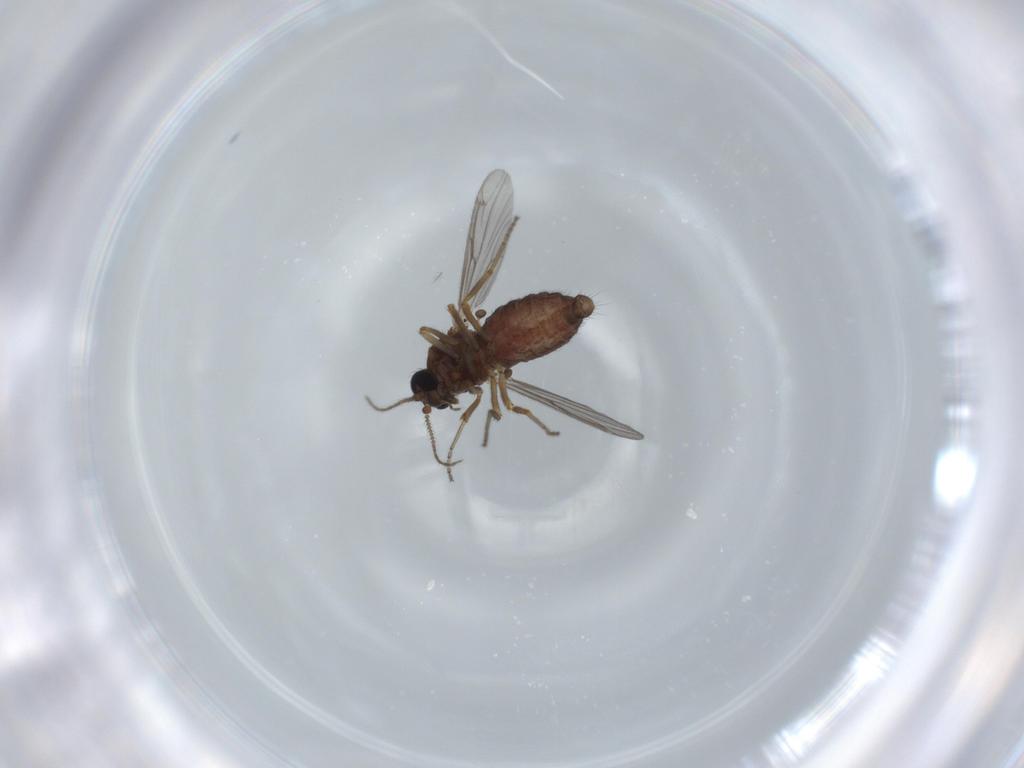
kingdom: Animalia
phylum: Arthropoda
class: Insecta
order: Diptera
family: Ceratopogonidae
